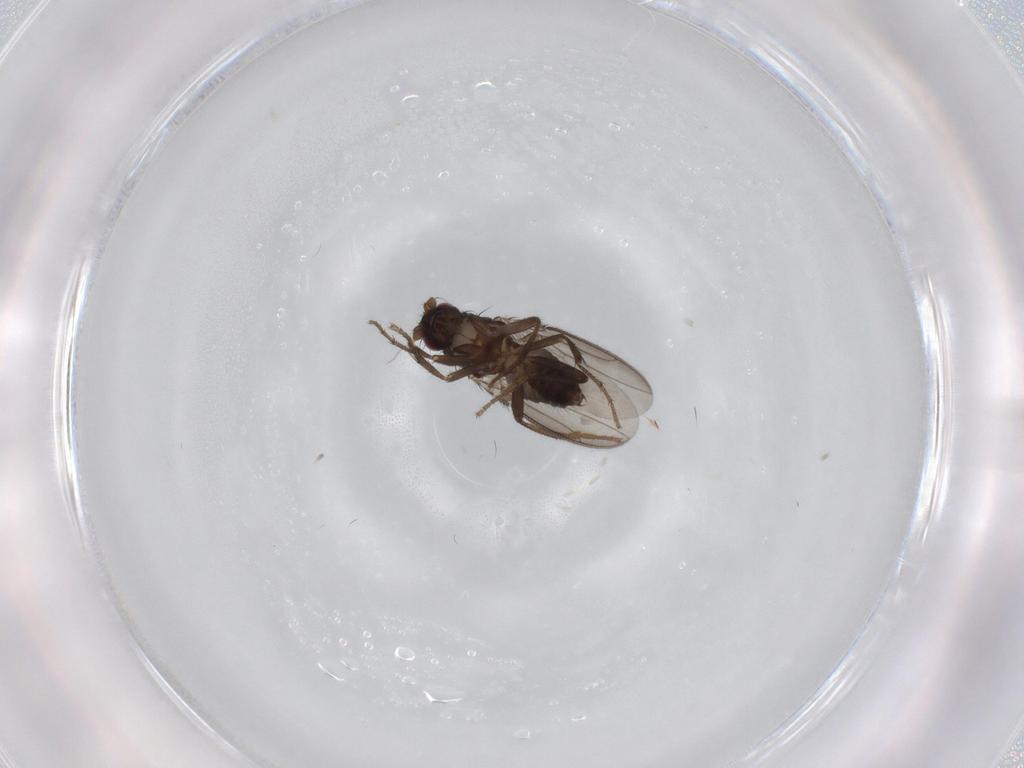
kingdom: Animalia
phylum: Arthropoda
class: Insecta
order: Diptera
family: Sphaeroceridae
